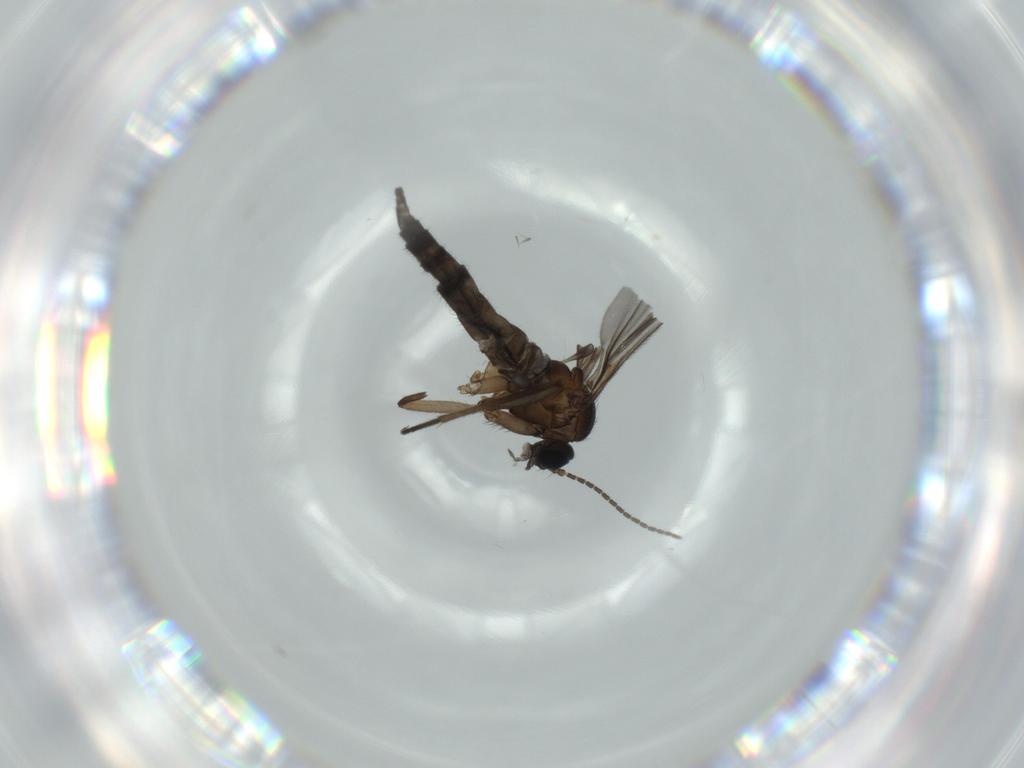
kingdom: Animalia
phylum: Arthropoda
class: Insecta
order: Diptera
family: Sciaridae
